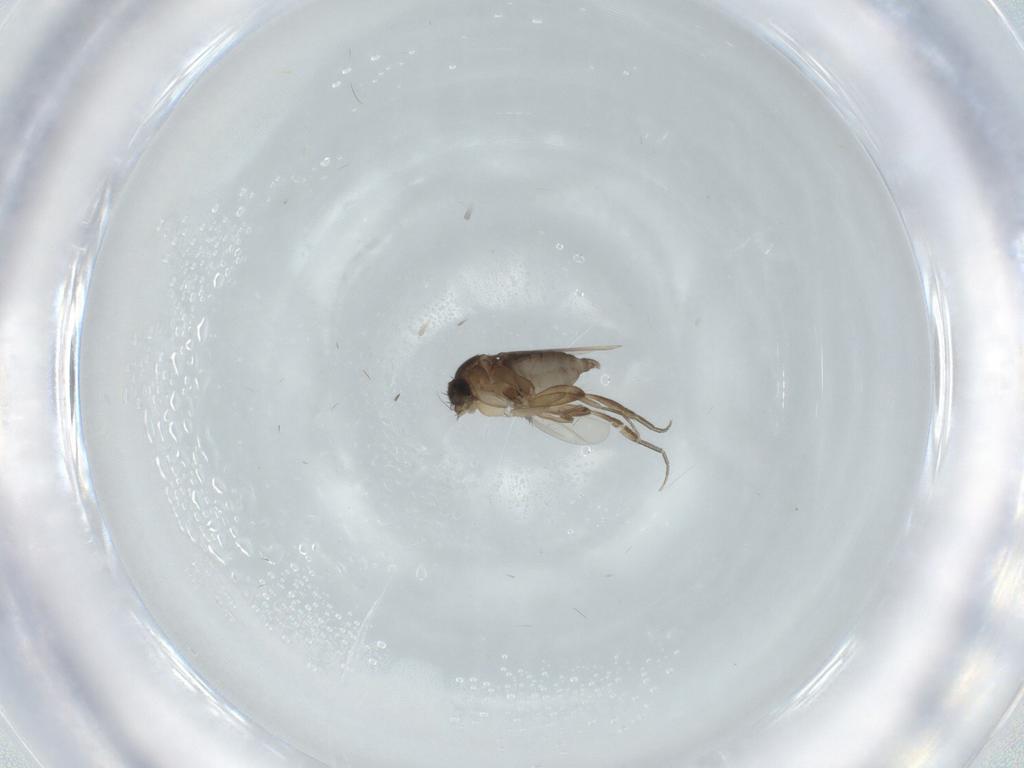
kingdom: Animalia
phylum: Arthropoda
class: Insecta
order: Diptera
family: Phoridae
